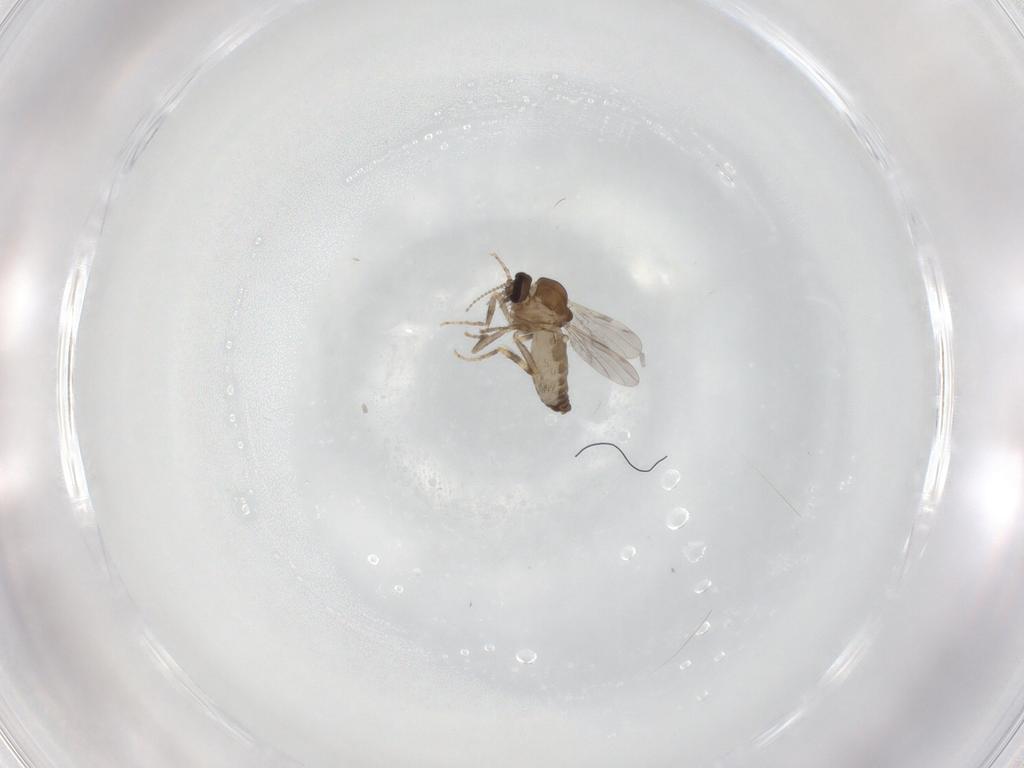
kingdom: Animalia
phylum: Arthropoda
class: Insecta
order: Diptera
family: Ceratopogonidae
